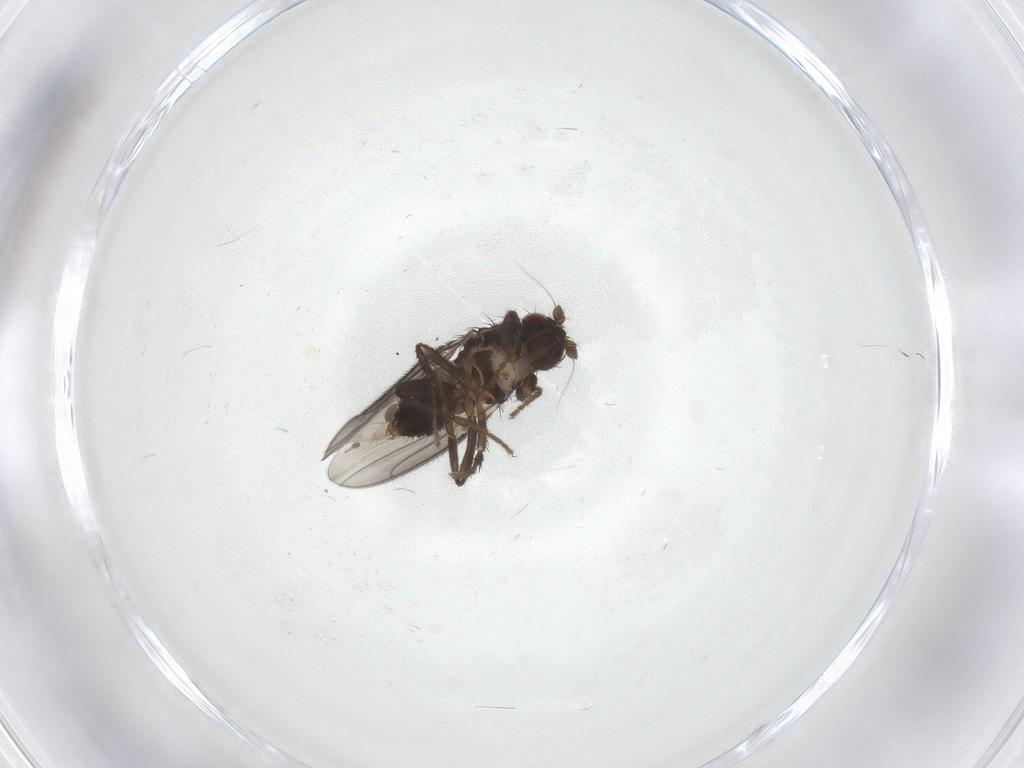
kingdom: Animalia
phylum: Arthropoda
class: Insecta
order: Diptera
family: Sphaeroceridae
